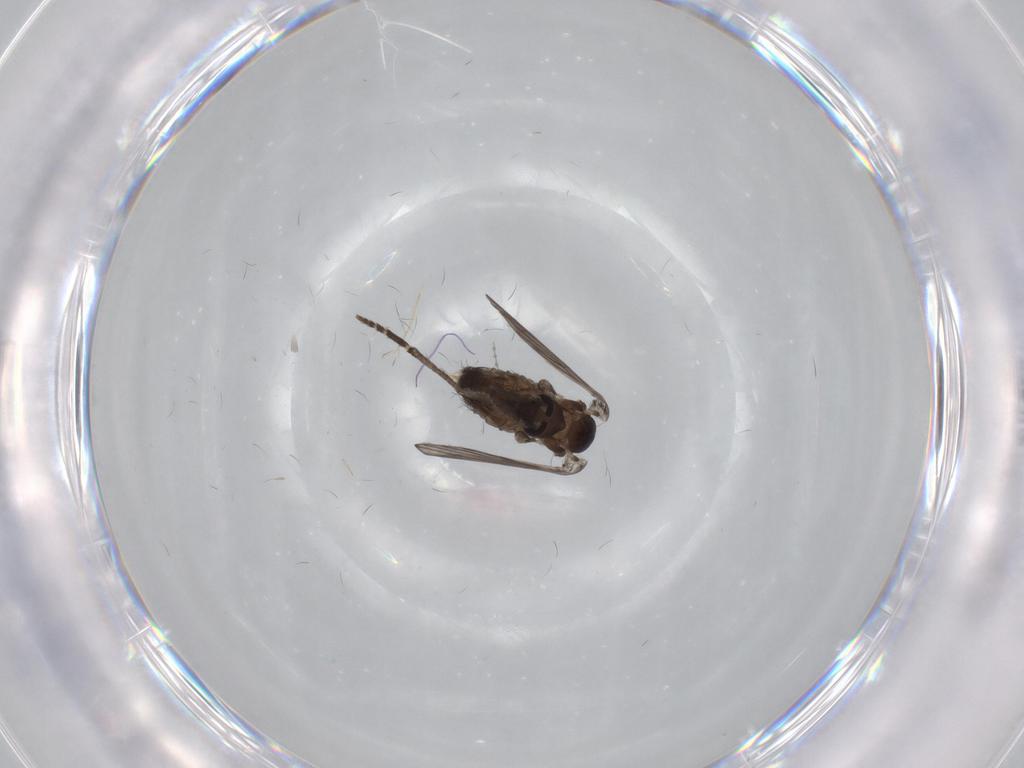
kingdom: Animalia
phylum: Arthropoda
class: Insecta
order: Diptera
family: Psychodidae
